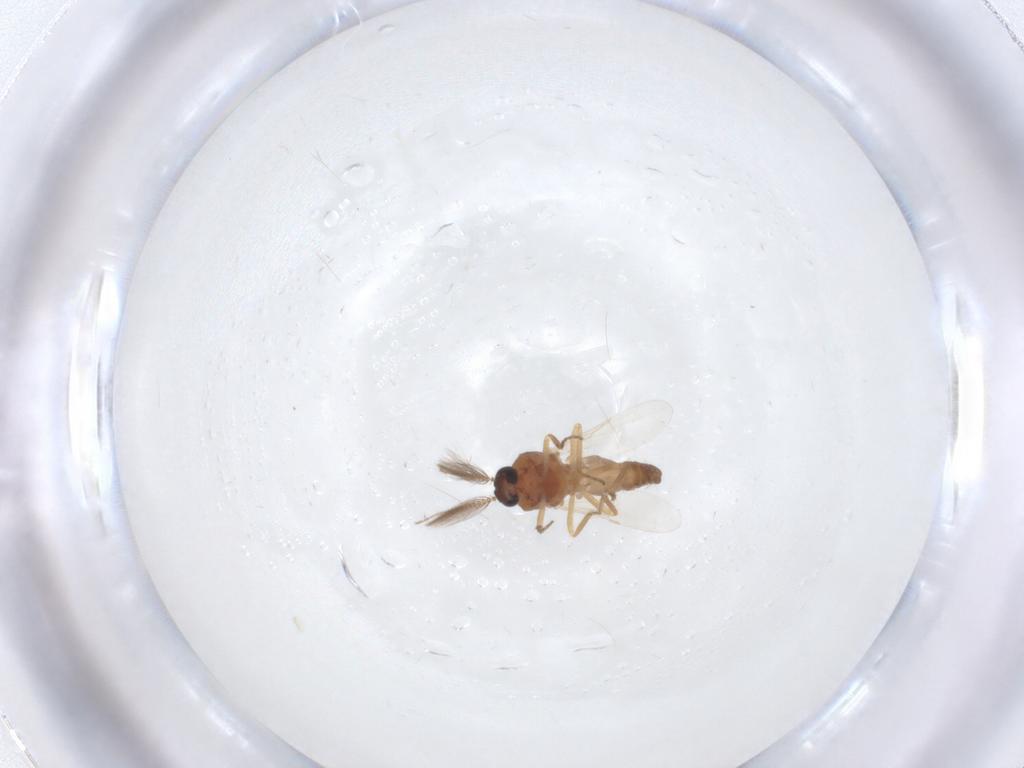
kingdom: Animalia
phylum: Arthropoda
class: Insecta
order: Diptera
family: Ceratopogonidae
